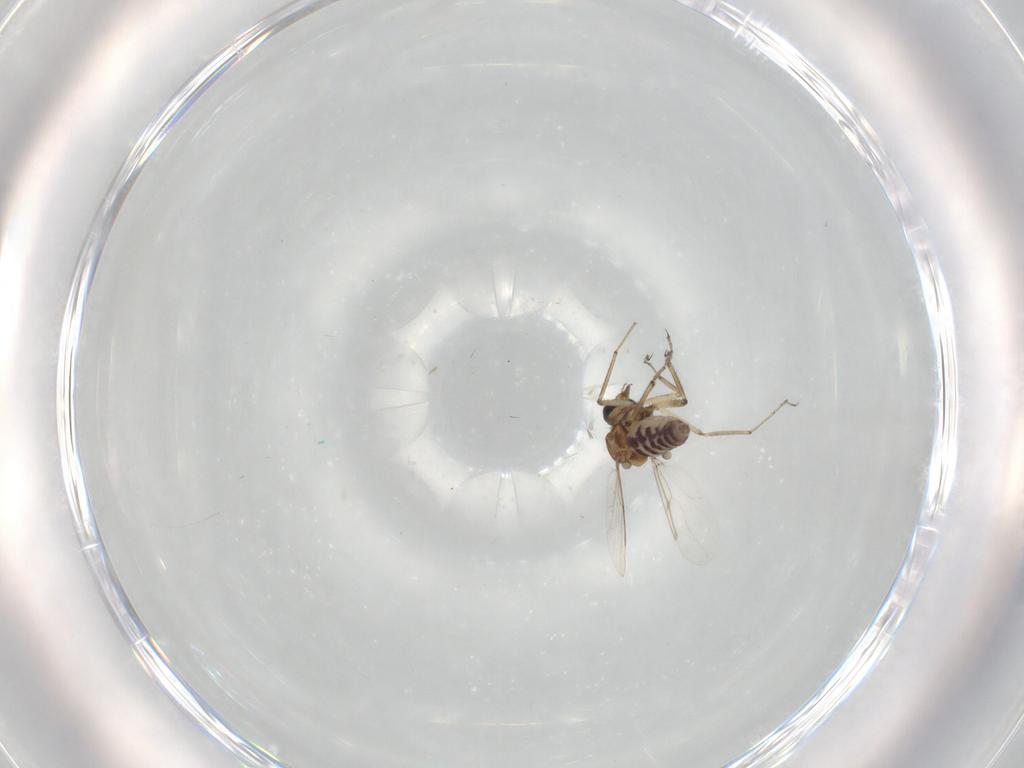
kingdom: Animalia
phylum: Arthropoda
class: Insecta
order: Diptera
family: Ceratopogonidae
